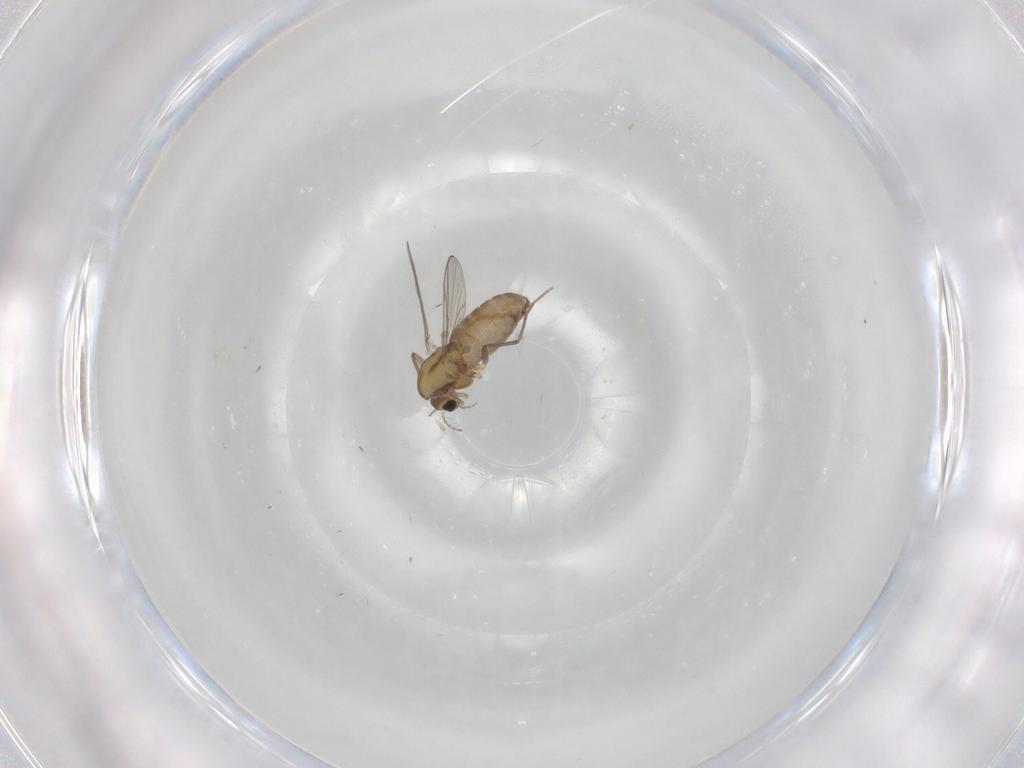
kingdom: Animalia
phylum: Arthropoda
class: Insecta
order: Diptera
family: Chironomidae
